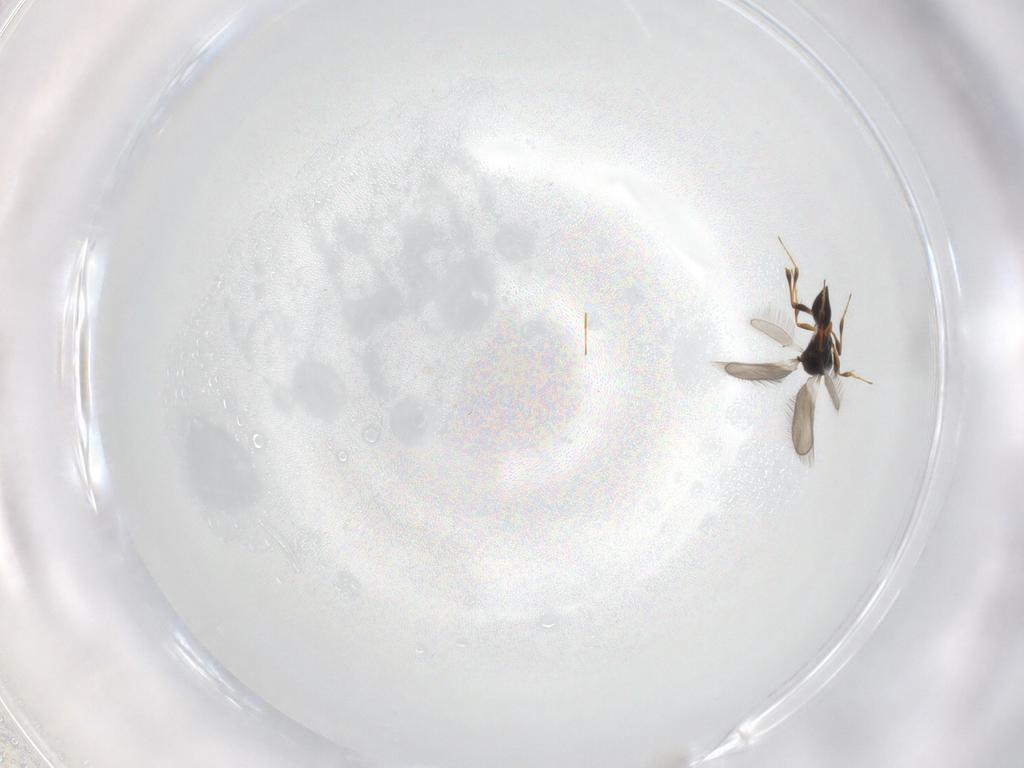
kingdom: Animalia
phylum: Arthropoda
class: Insecta
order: Hymenoptera
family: Platygastridae
